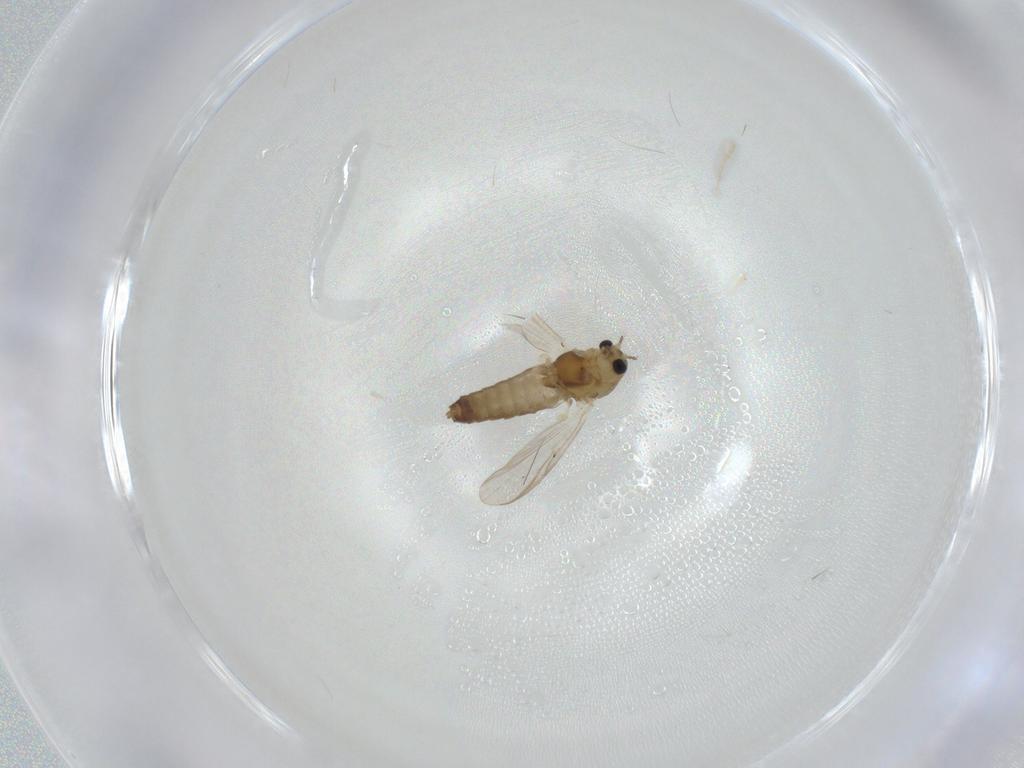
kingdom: Animalia
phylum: Arthropoda
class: Insecta
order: Diptera
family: Chironomidae
